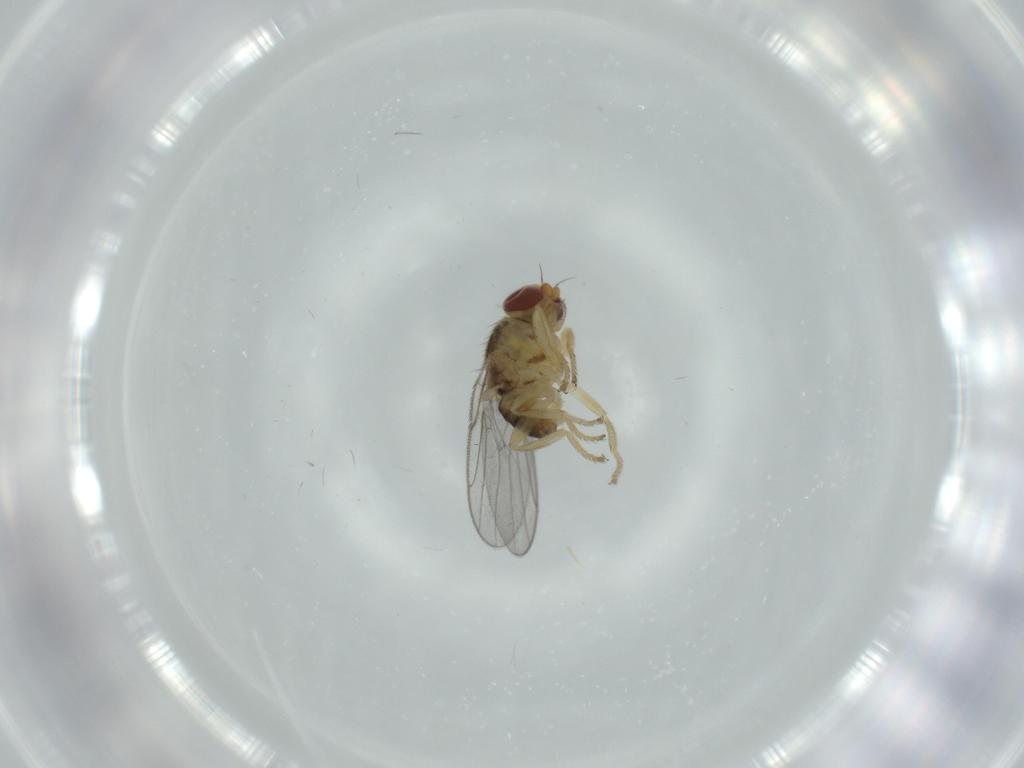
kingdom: Animalia
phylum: Arthropoda
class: Insecta
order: Diptera
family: Chloropidae
